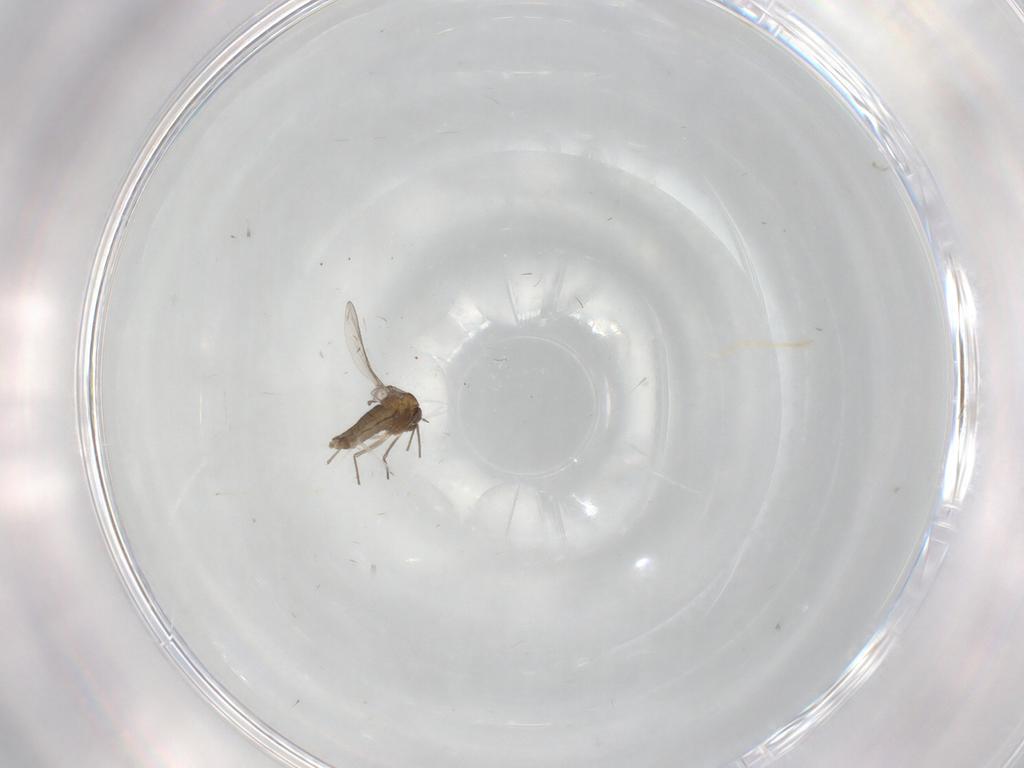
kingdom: Animalia
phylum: Arthropoda
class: Insecta
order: Diptera
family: Chironomidae
